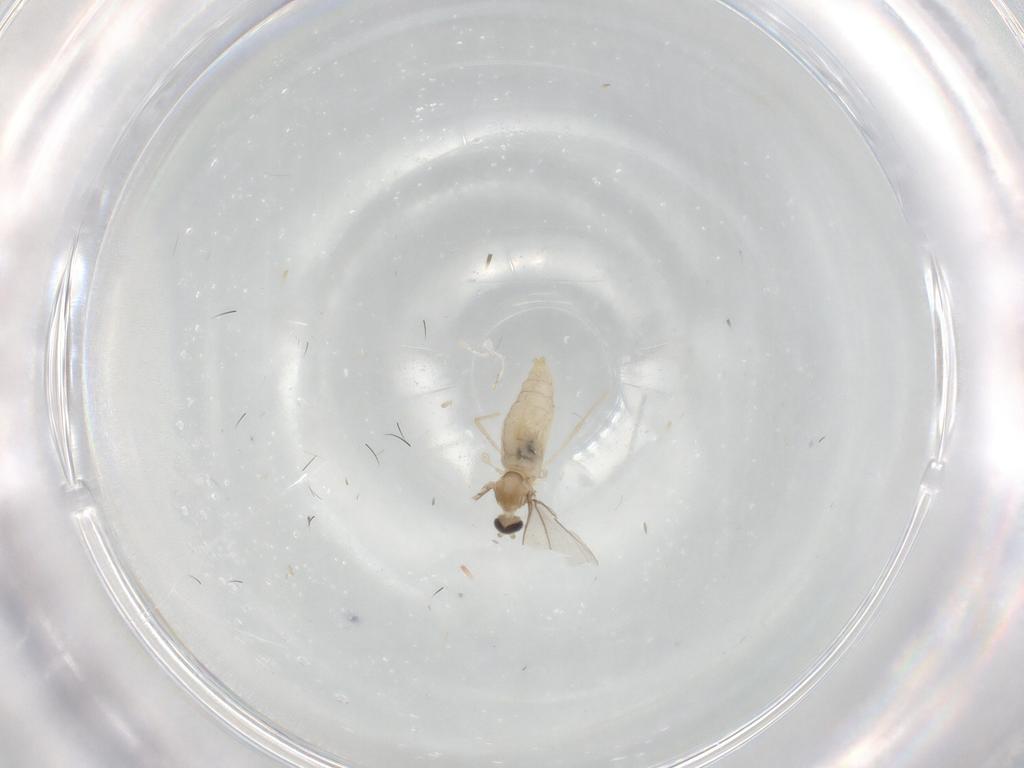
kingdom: Animalia
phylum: Arthropoda
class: Insecta
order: Diptera
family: Cecidomyiidae
